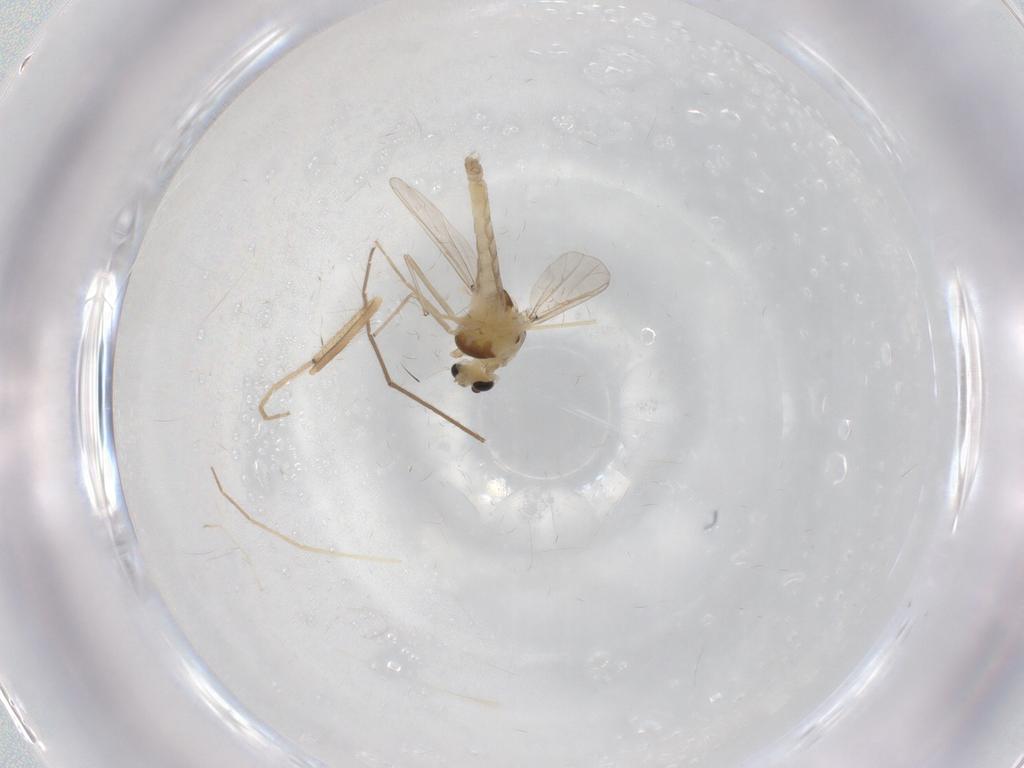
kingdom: Animalia
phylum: Arthropoda
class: Insecta
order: Diptera
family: Chironomidae
